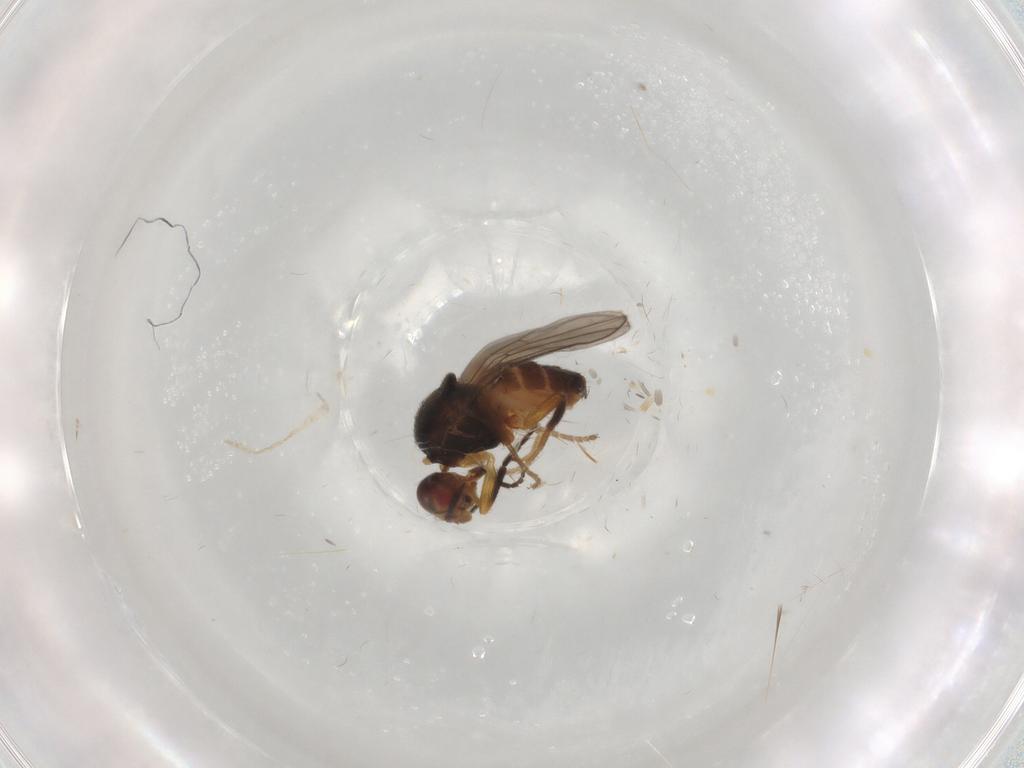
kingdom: Animalia
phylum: Arthropoda
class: Insecta
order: Diptera
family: Chloropidae
